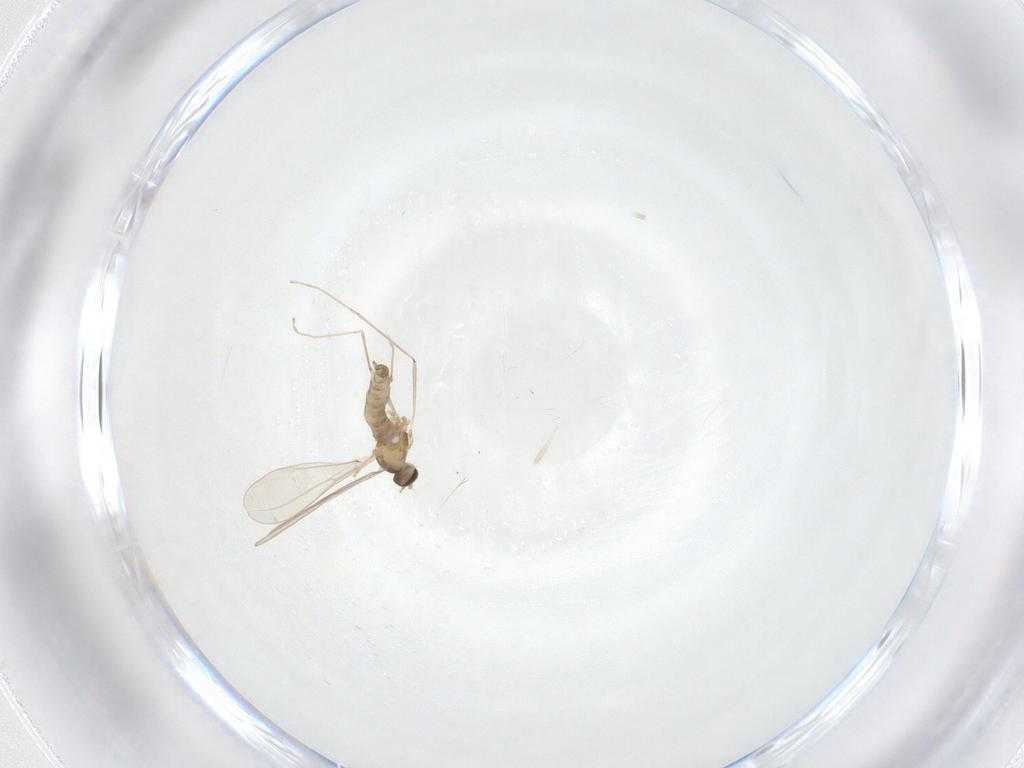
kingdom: Animalia
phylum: Arthropoda
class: Insecta
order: Diptera
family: Cecidomyiidae
